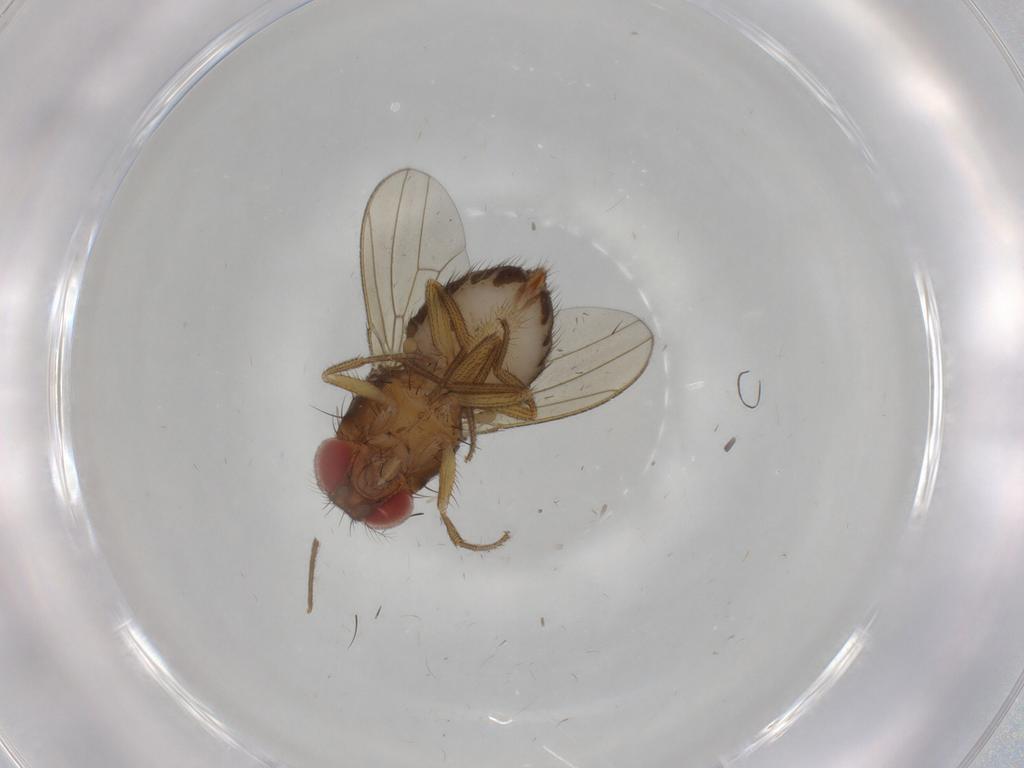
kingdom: Animalia
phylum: Arthropoda
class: Insecta
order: Diptera
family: Drosophilidae
